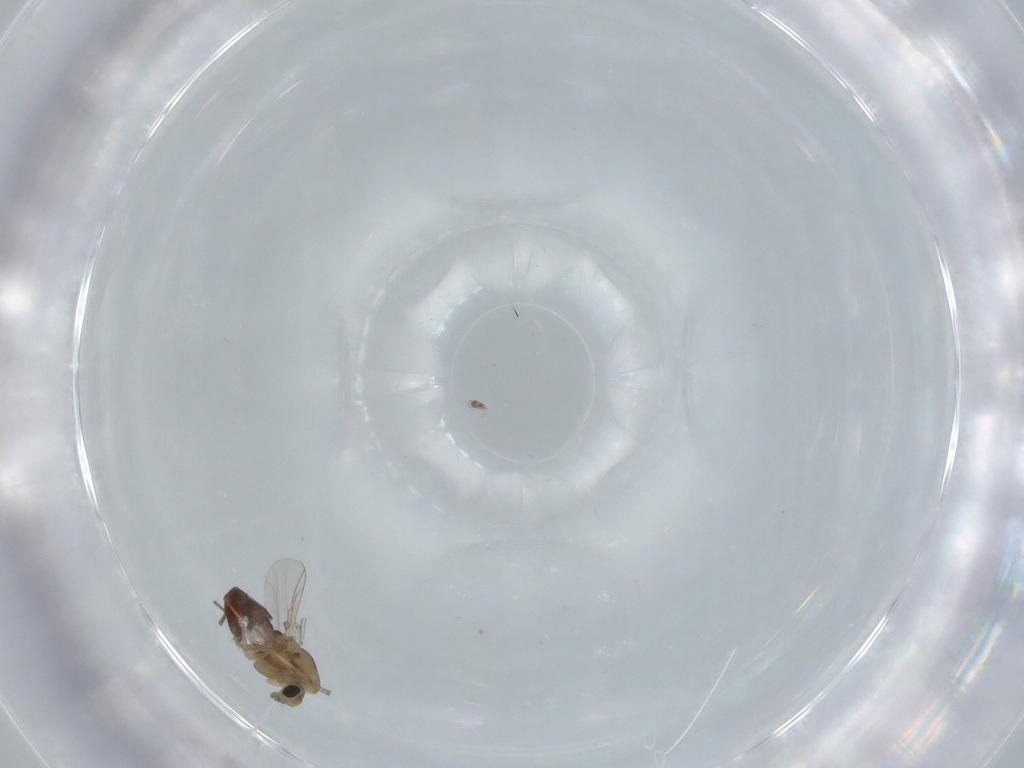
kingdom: Animalia
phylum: Arthropoda
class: Insecta
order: Diptera
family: Chironomidae
